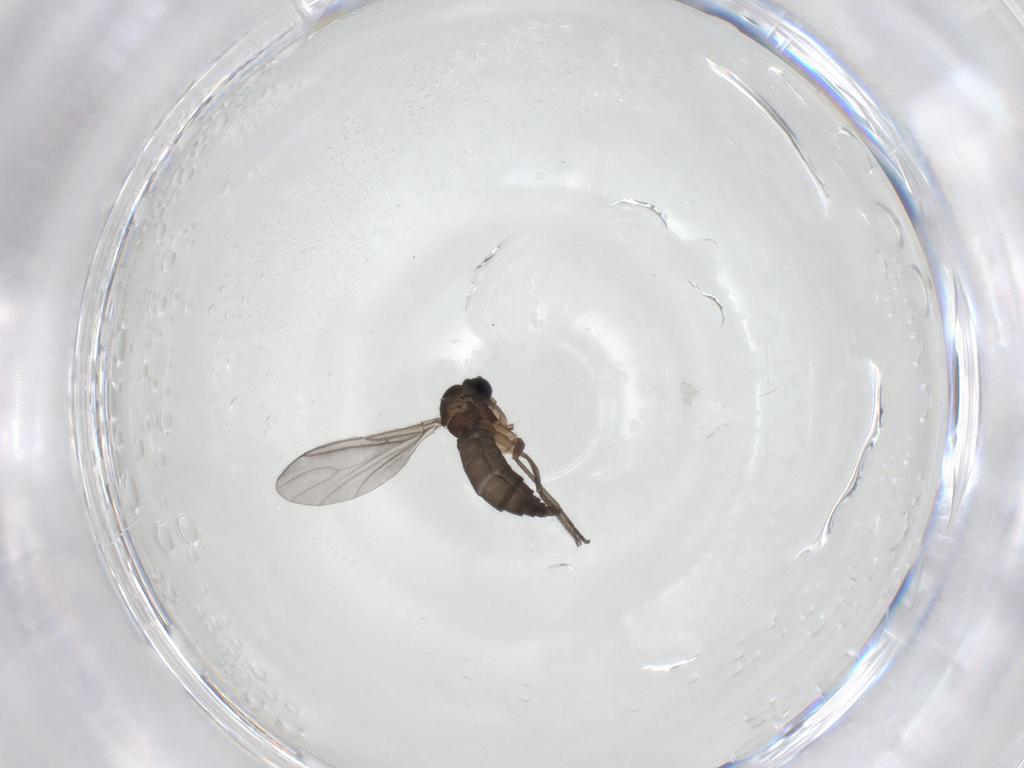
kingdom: Animalia
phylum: Arthropoda
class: Insecta
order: Diptera
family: Sciaridae
